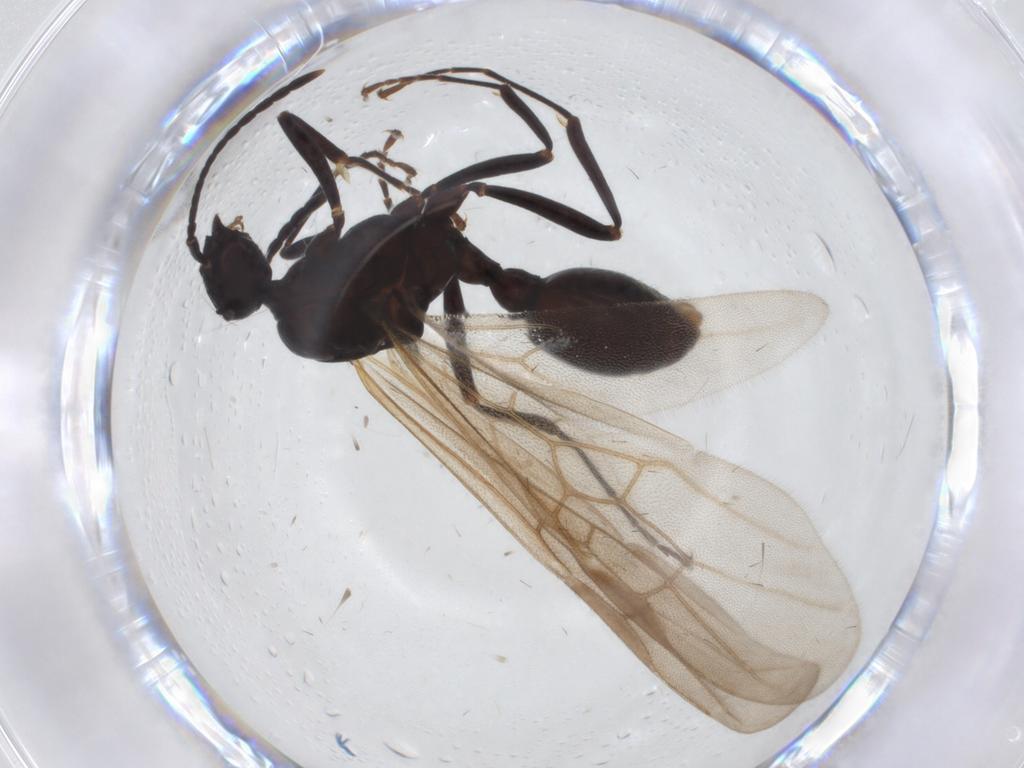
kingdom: Animalia
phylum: Arthropoda
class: Insecta
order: Hymenoptera
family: Formicidae
